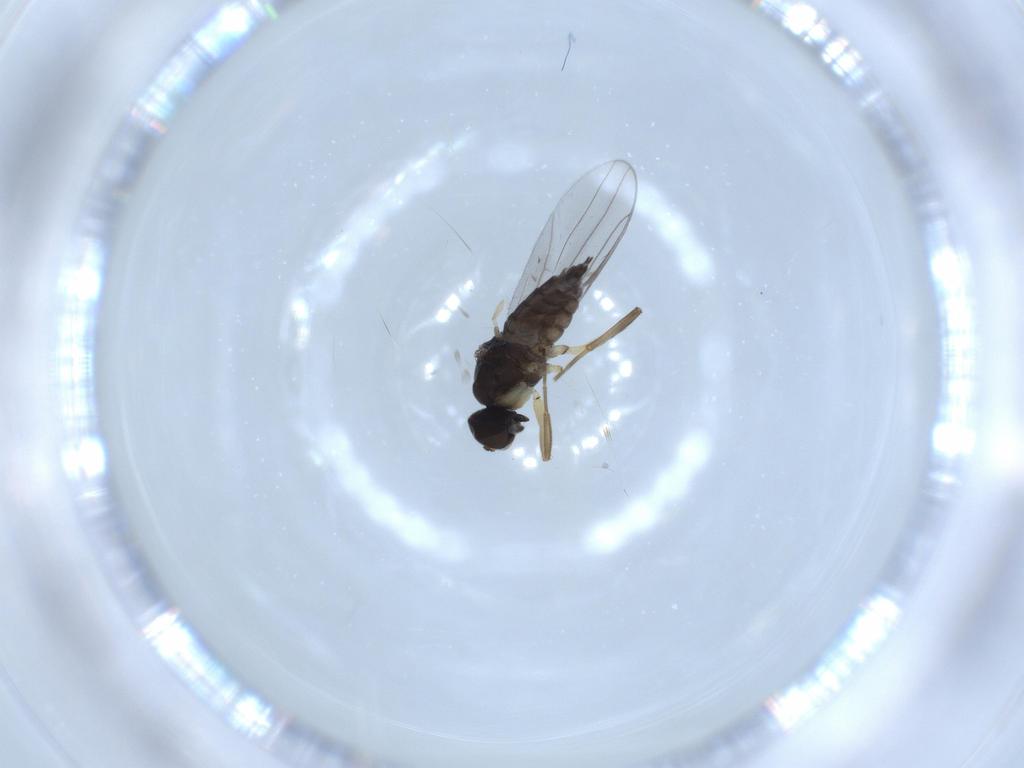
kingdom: Animalia
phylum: Arthropoda
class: Insecta
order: Diptera
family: Hybotidae
